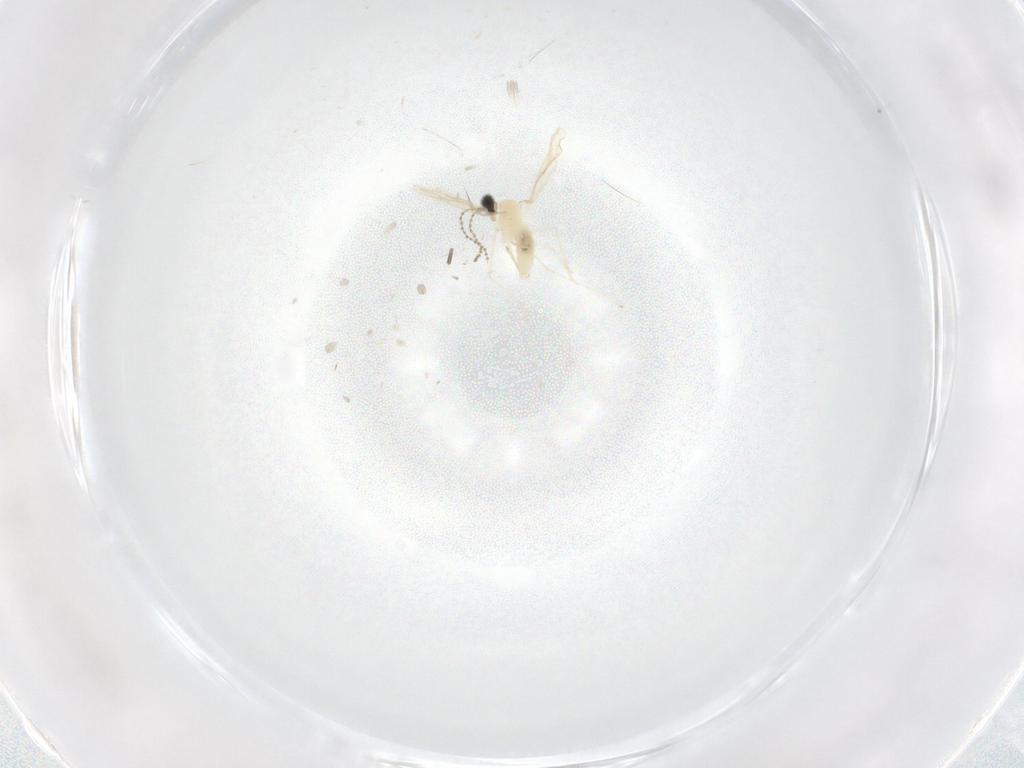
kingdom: Animalia
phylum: Arthropoda
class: Insecta
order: Diptera
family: Cecidomyiidae
